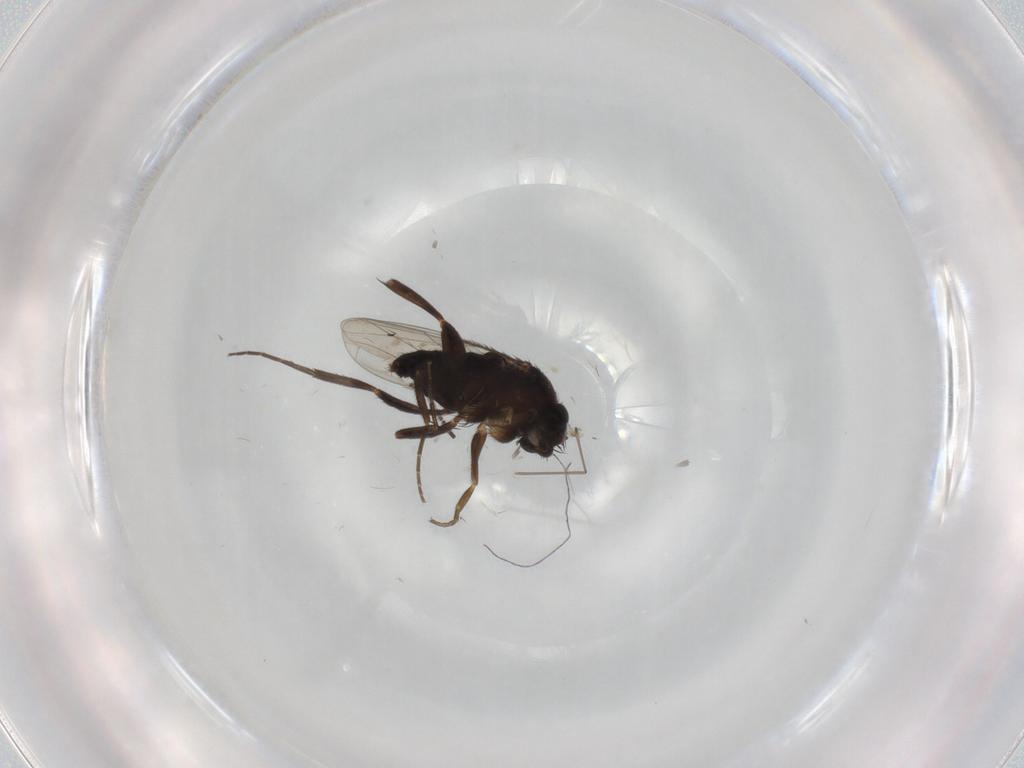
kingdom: Animalia
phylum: Arthropoda
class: Insecta
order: Diptera
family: Phoridae
